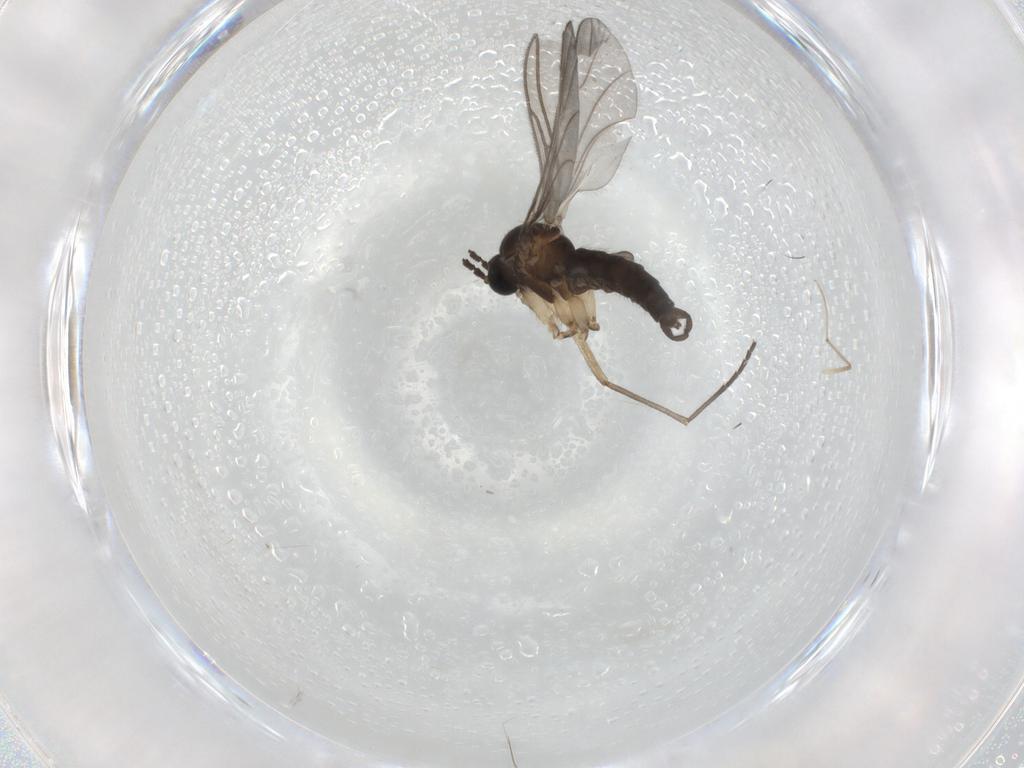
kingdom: Animalia
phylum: Arthropoda
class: Insecta
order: Diptera
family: Sciaridae
